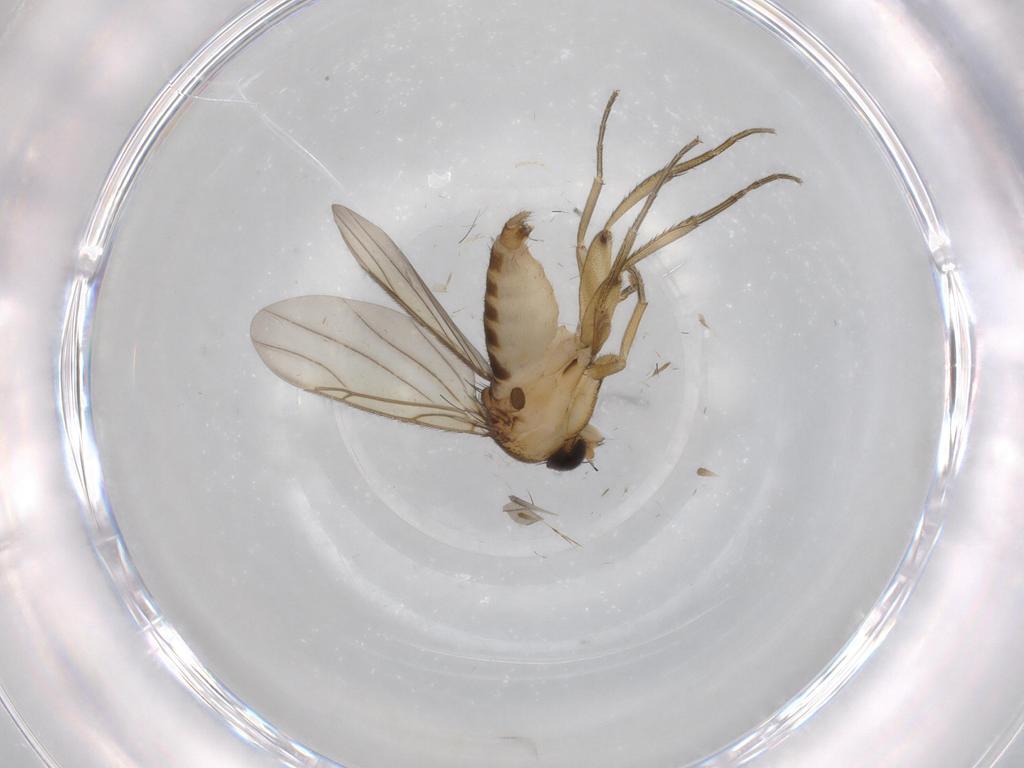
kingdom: Animalia
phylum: Arthropoda
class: Insecta
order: Diptera
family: Phoridae
